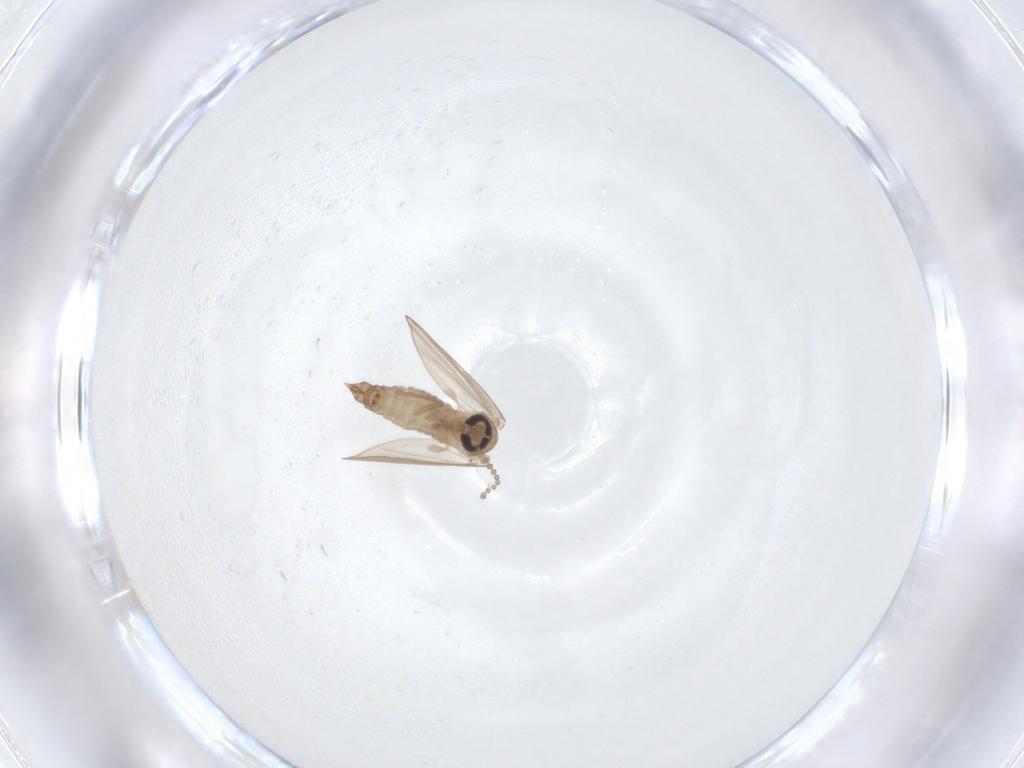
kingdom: Animalia
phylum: Arthropoda
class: Insecta
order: Diptera
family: Psychodidae
